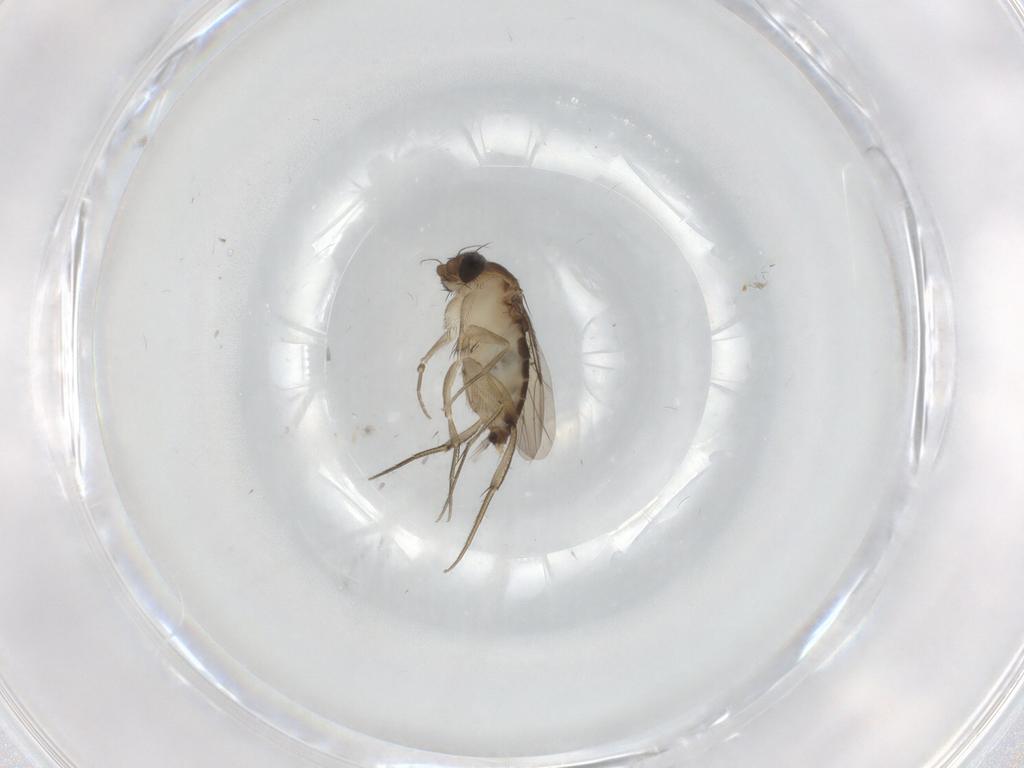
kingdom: Animalia
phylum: Arthropoda
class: Insecta
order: Diptera
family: Phoridae
